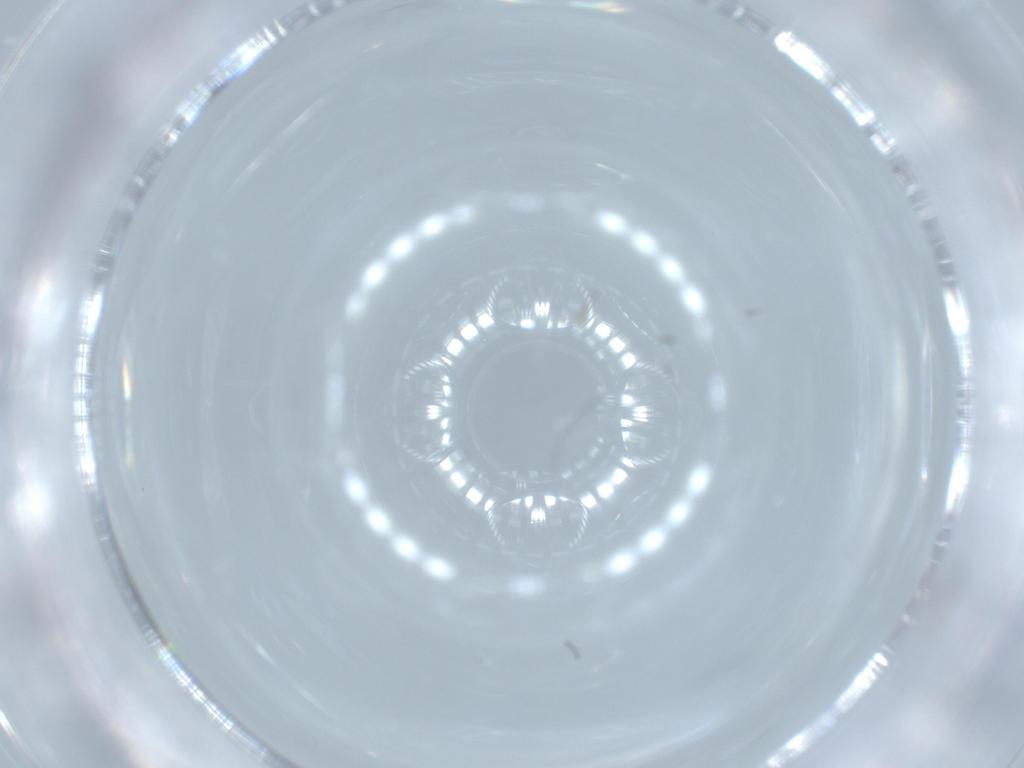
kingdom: Animalia
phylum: Arthropoda
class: Insecta
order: Diptera
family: Cecidomyiidae
